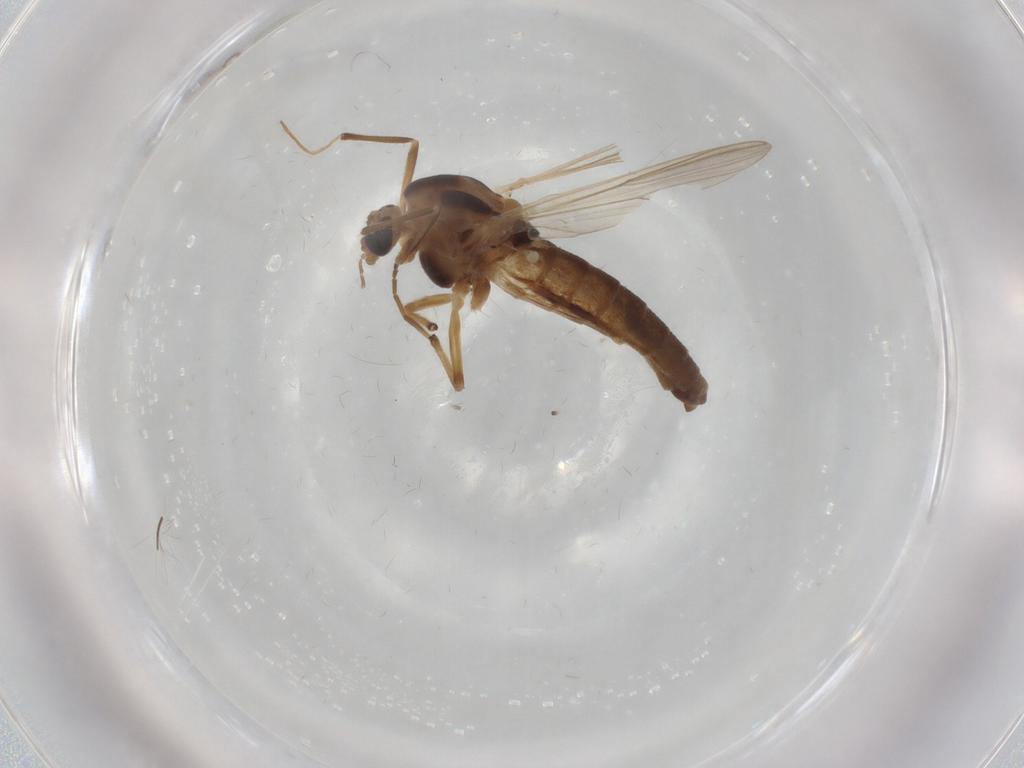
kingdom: Animalia
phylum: Arthropoda
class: Insecta
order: Diptera
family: Chironomidae
